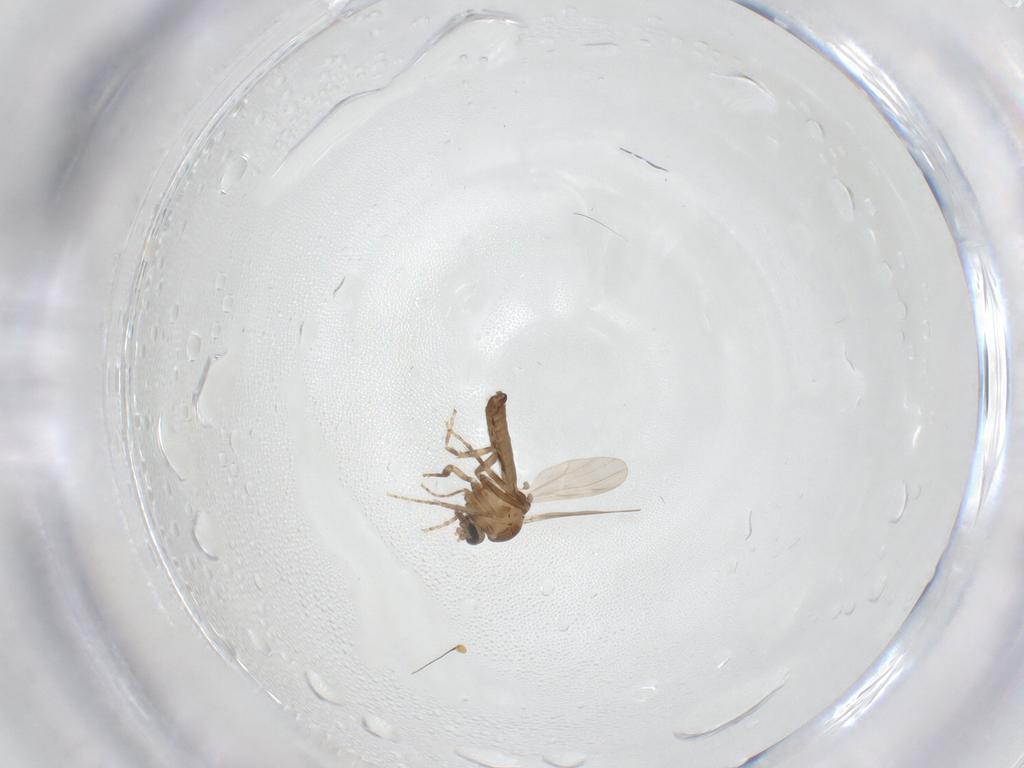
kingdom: Animalia
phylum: Arthropoda
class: Insecta
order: Diptera
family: Ceratopogonidae
